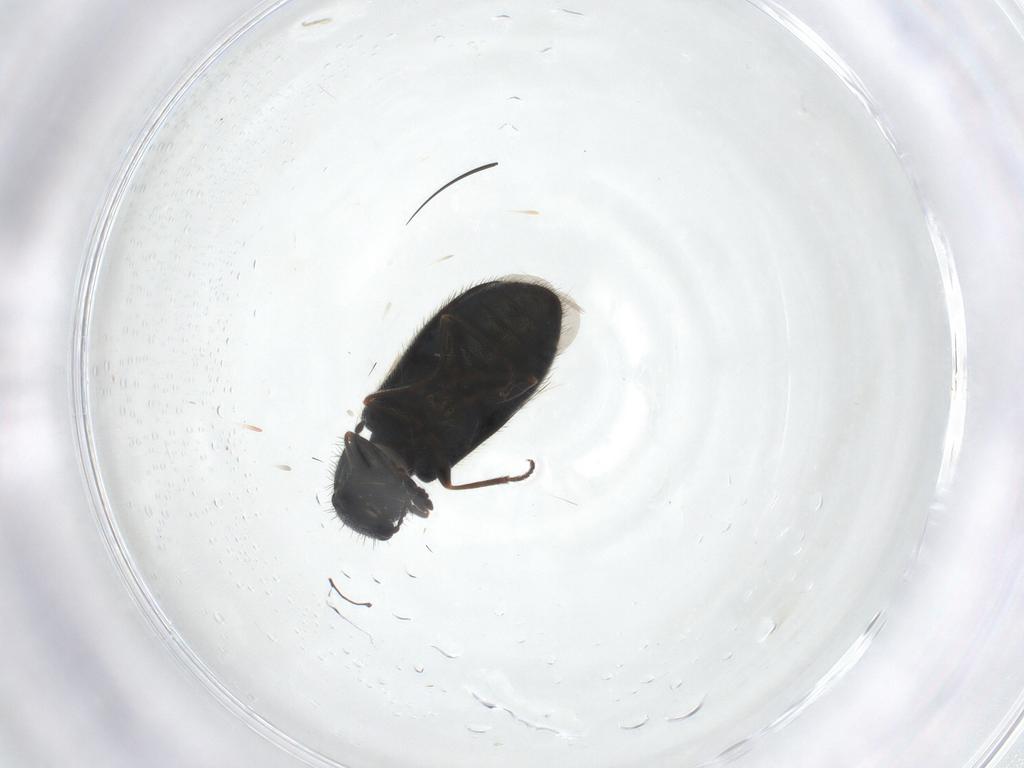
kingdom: Animalia
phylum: Arthropoda
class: Insecta
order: Coleoptera
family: Melyridae
